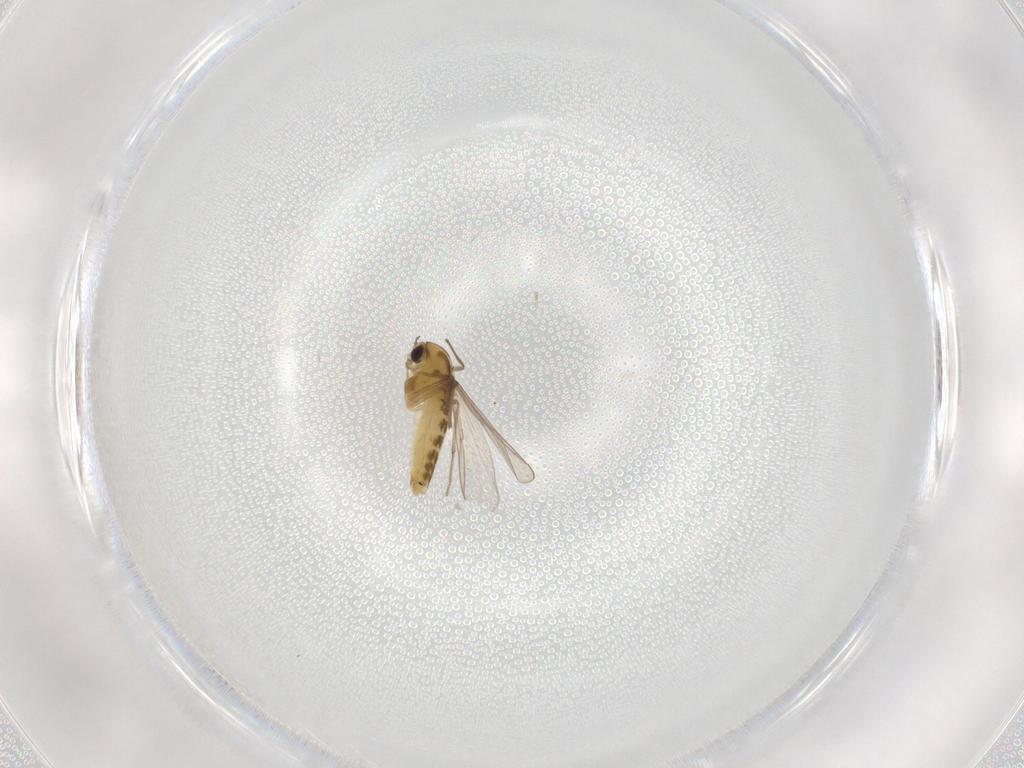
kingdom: Animalia
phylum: Arthropoda
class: Insecta
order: Diptera
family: Chironomidae
